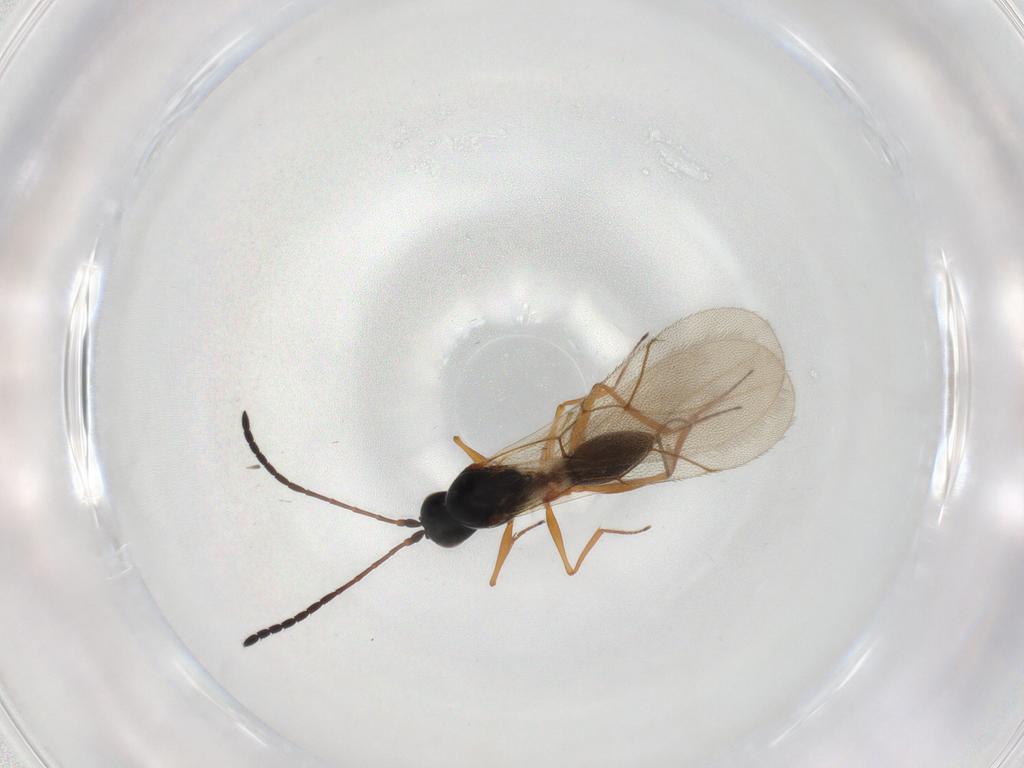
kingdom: Animalia
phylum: Arthropoda
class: Insecta
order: Hymenoptera
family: Figitidae
